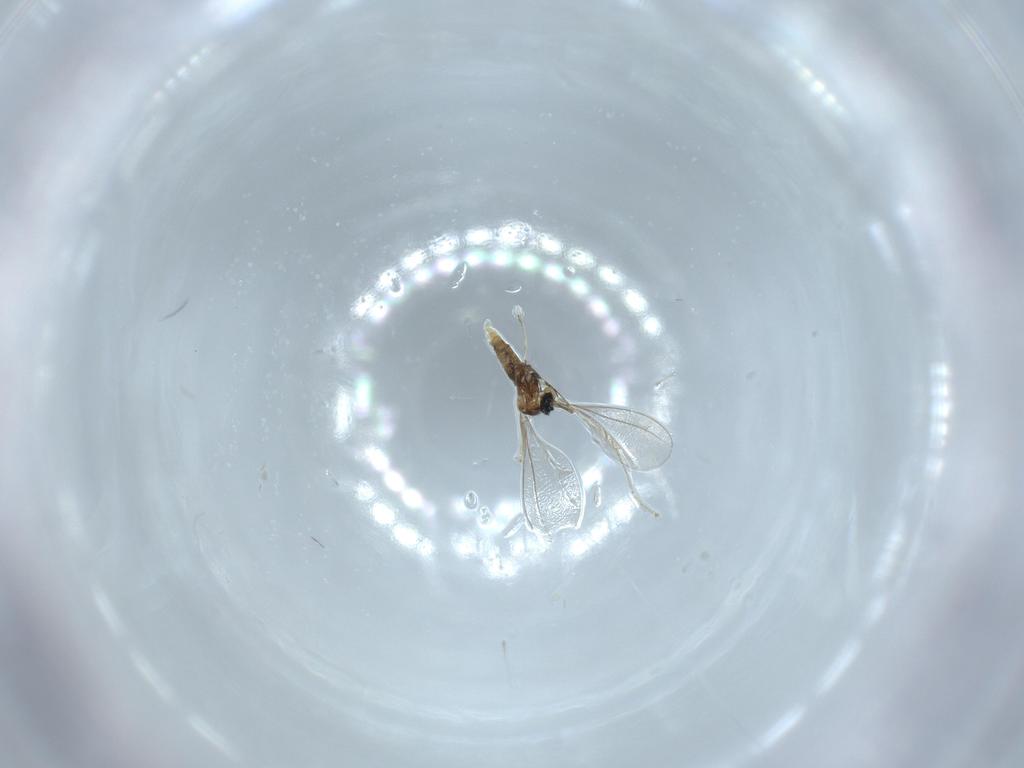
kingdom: Animalia
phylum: Arthropoda
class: Insecta
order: Diptera
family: Cecidomyiidae
